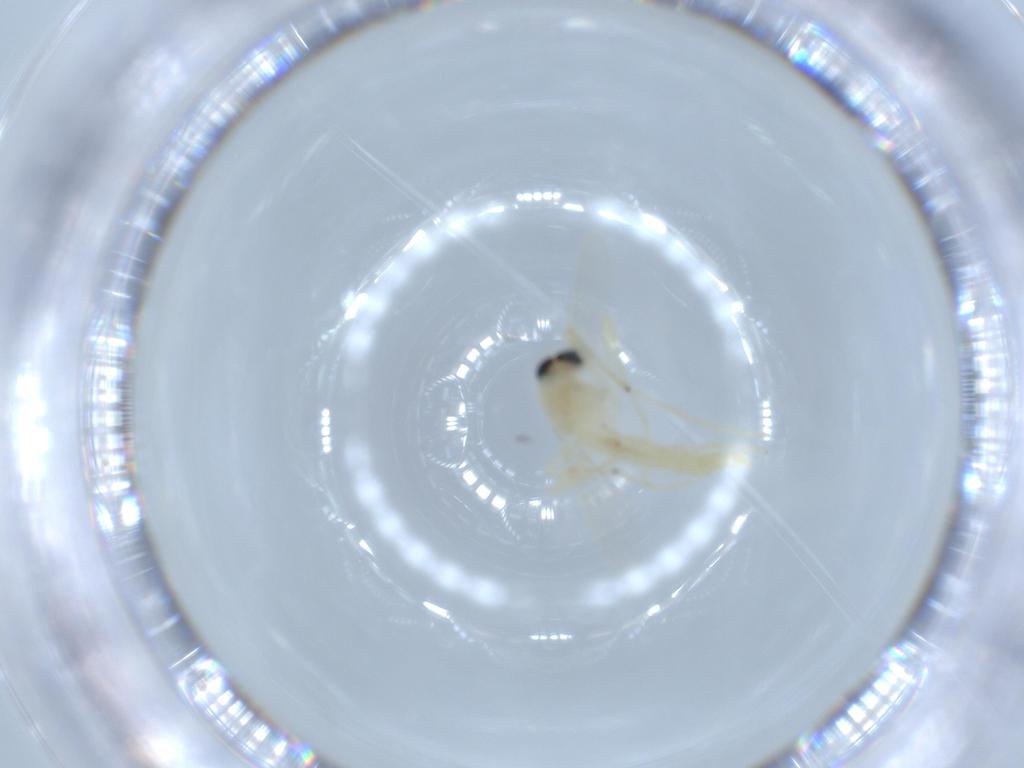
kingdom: Animalia
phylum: Arthropoda
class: Insecta
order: Diptera
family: Chironomidae
